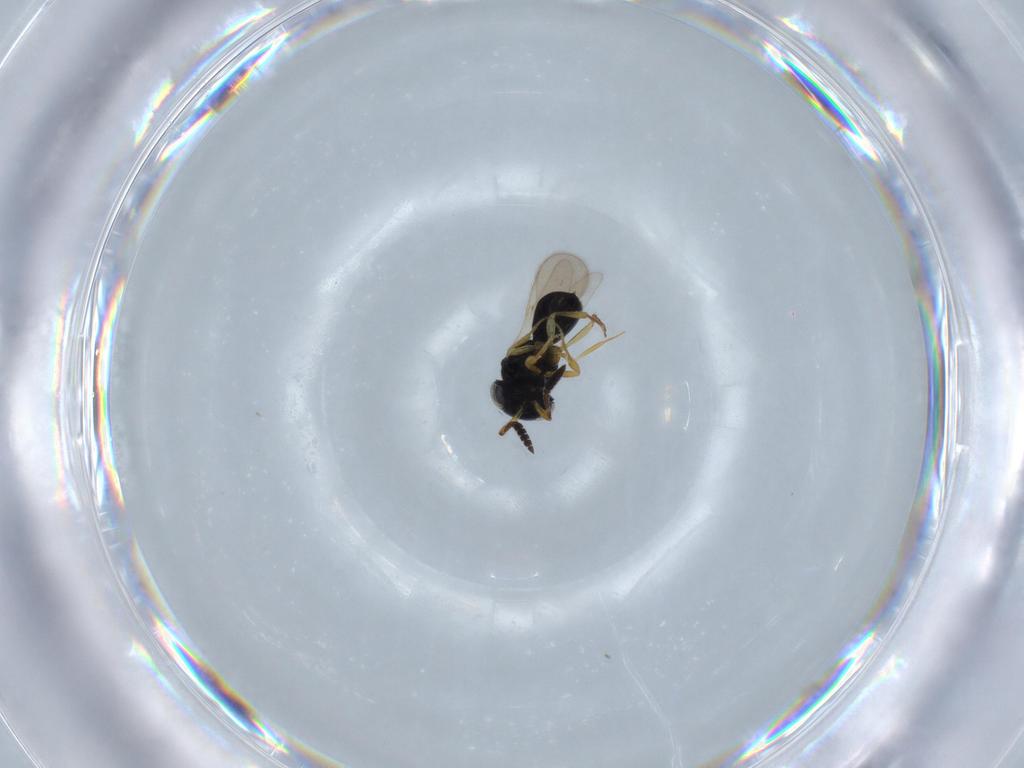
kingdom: Animalia
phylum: Arthropoda
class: Insecta
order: Hymenoptera
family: Scelionidae
